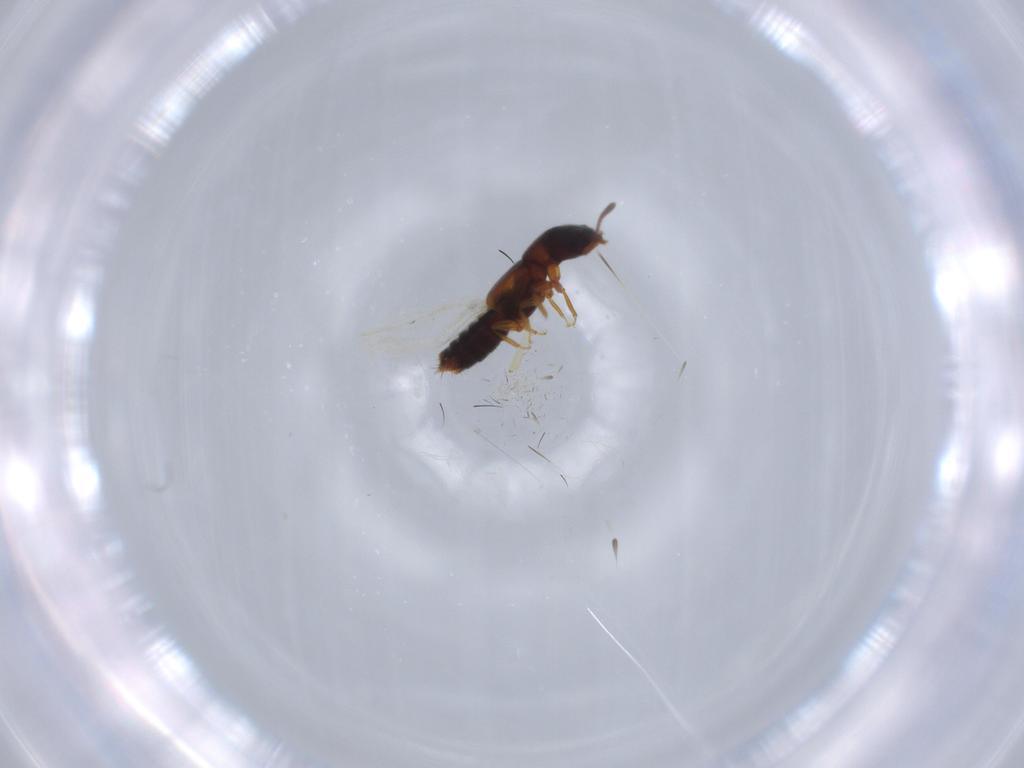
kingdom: Animalia
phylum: Arthropoda
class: Insecta
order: Coleoptera
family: Staphylinidae
